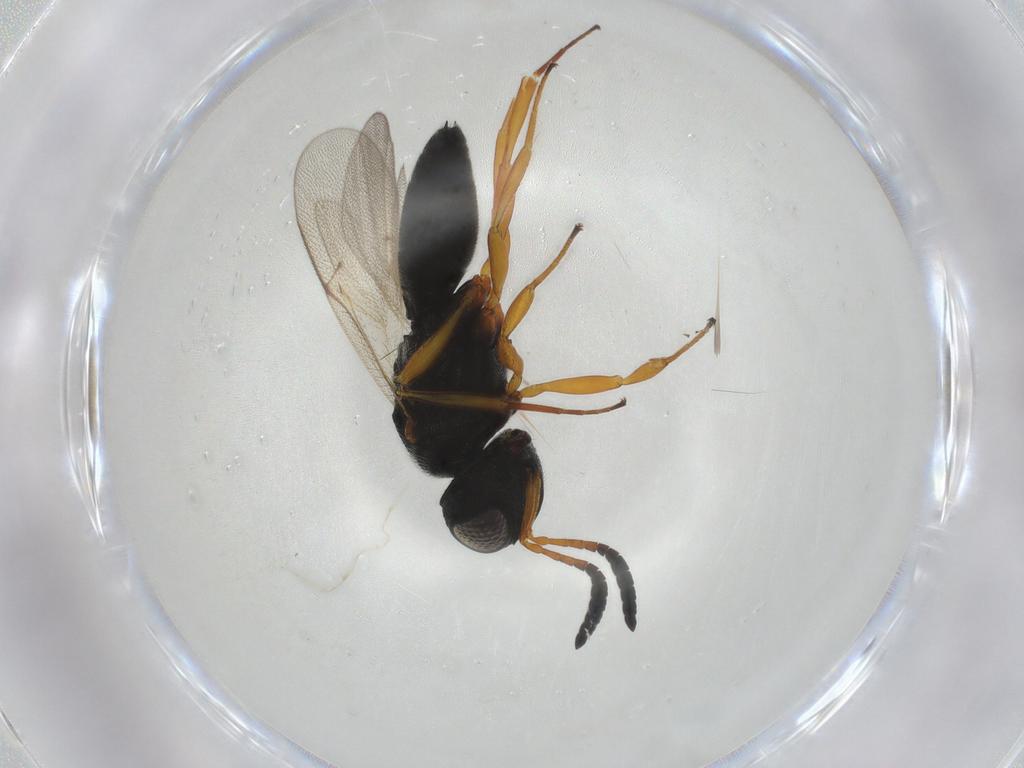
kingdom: Animalia
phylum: Arthropoda
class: Insecta
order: Hymenoptera
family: Scelionidae
